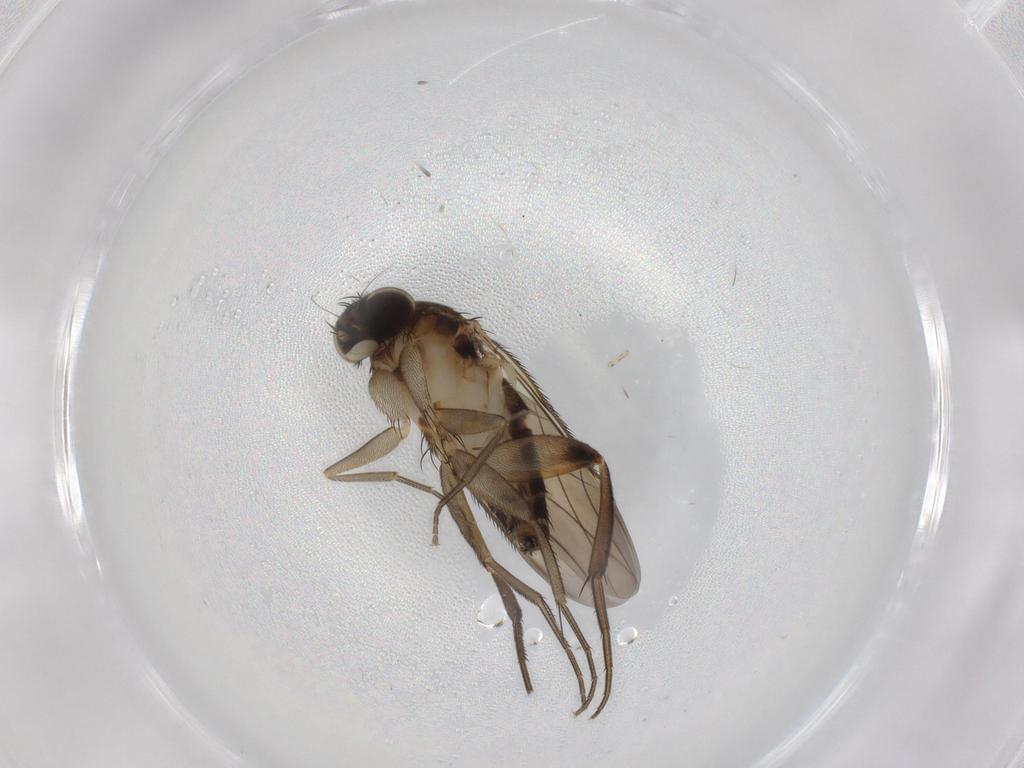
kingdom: Animalia
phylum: Arthropoda
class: Insecta
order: Diptera
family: Phoridae
